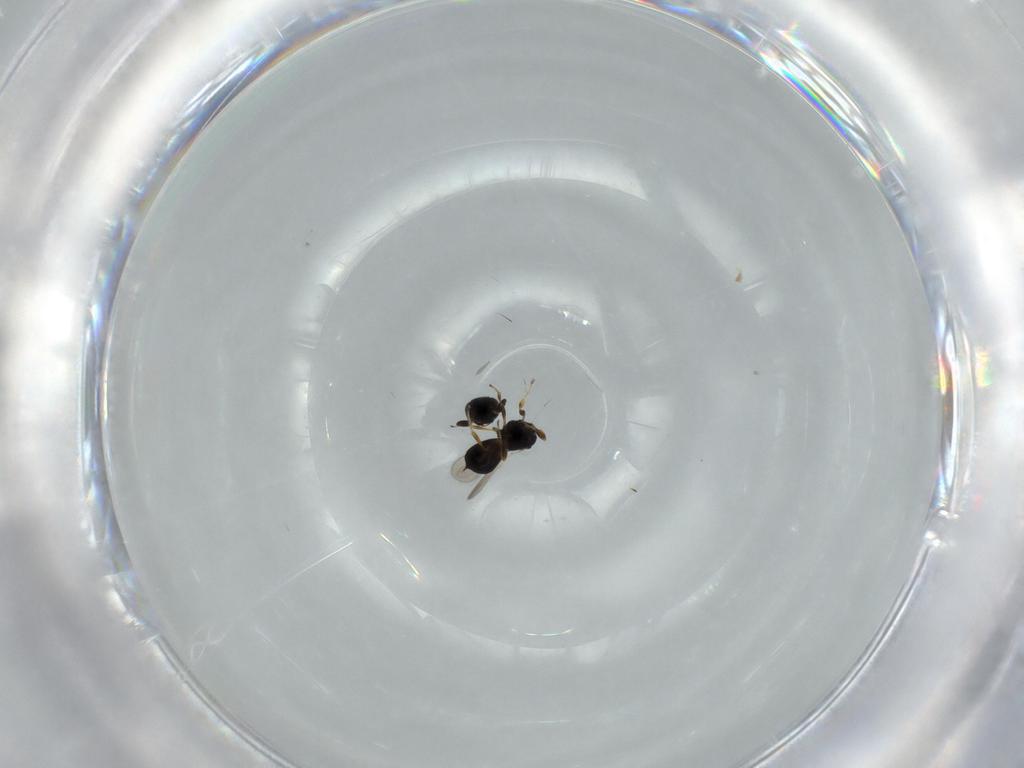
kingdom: Animalia
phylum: Arthropoda
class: Insecta
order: Hymenoptera
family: Scelionidae
